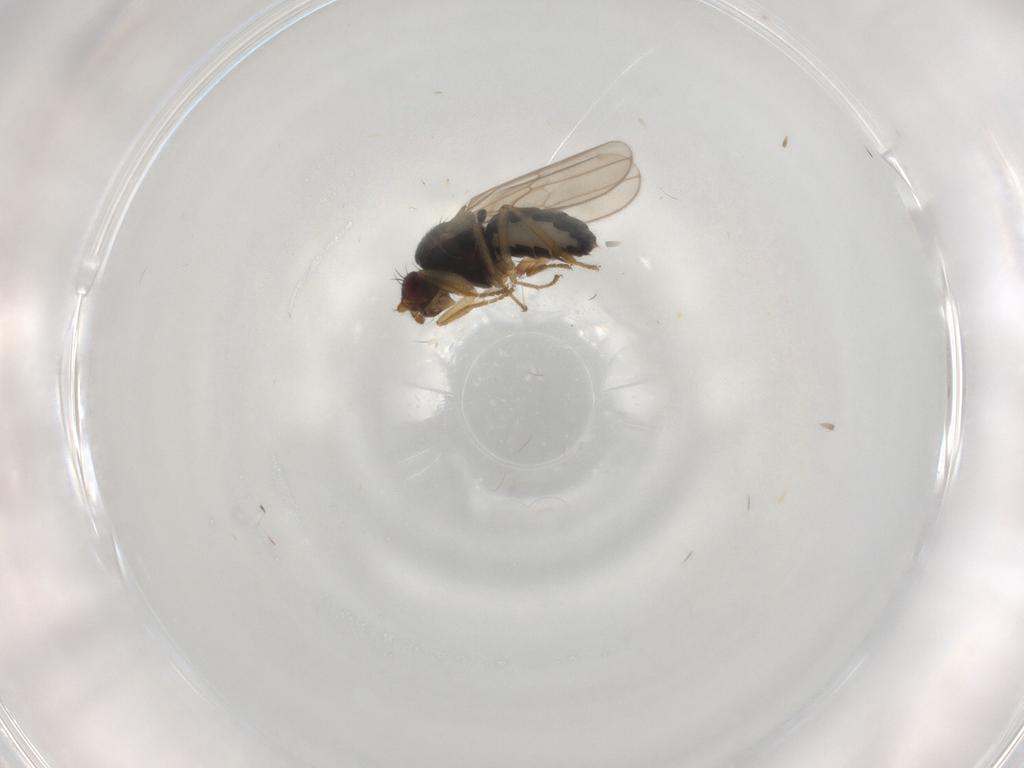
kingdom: Animalia
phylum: Arthropoda
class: Insecta
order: Diptera
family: Sphaeroceridae
